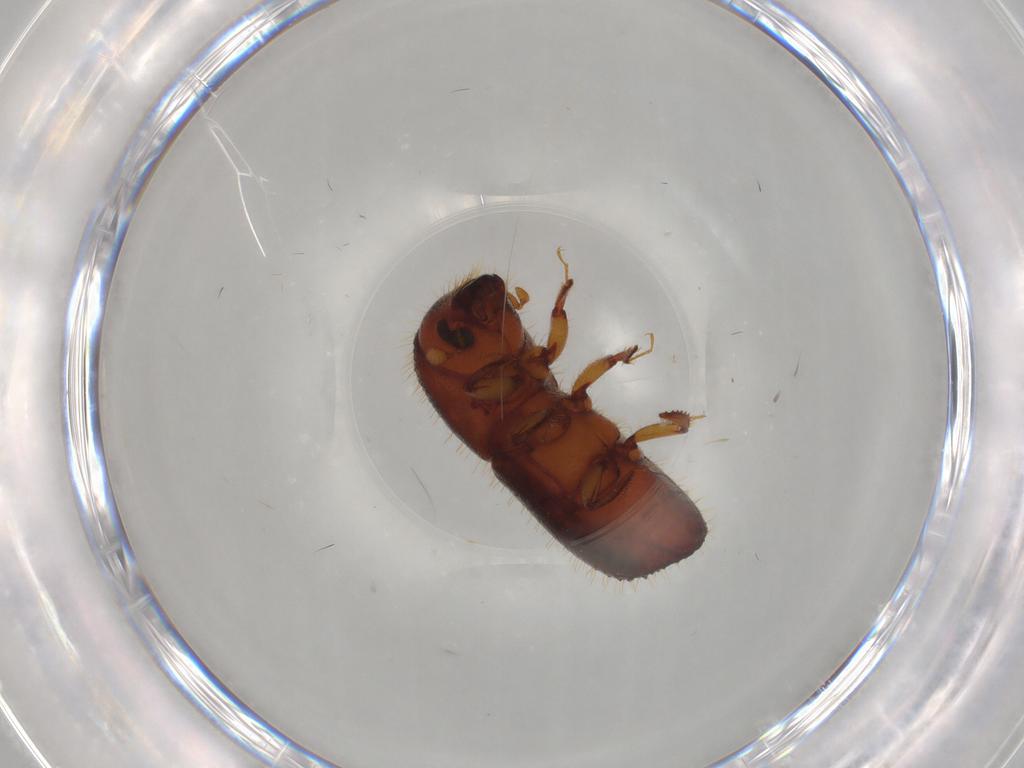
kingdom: Animalia
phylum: Arthropoda
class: Insecta
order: Coleoptera
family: Curculionidae
